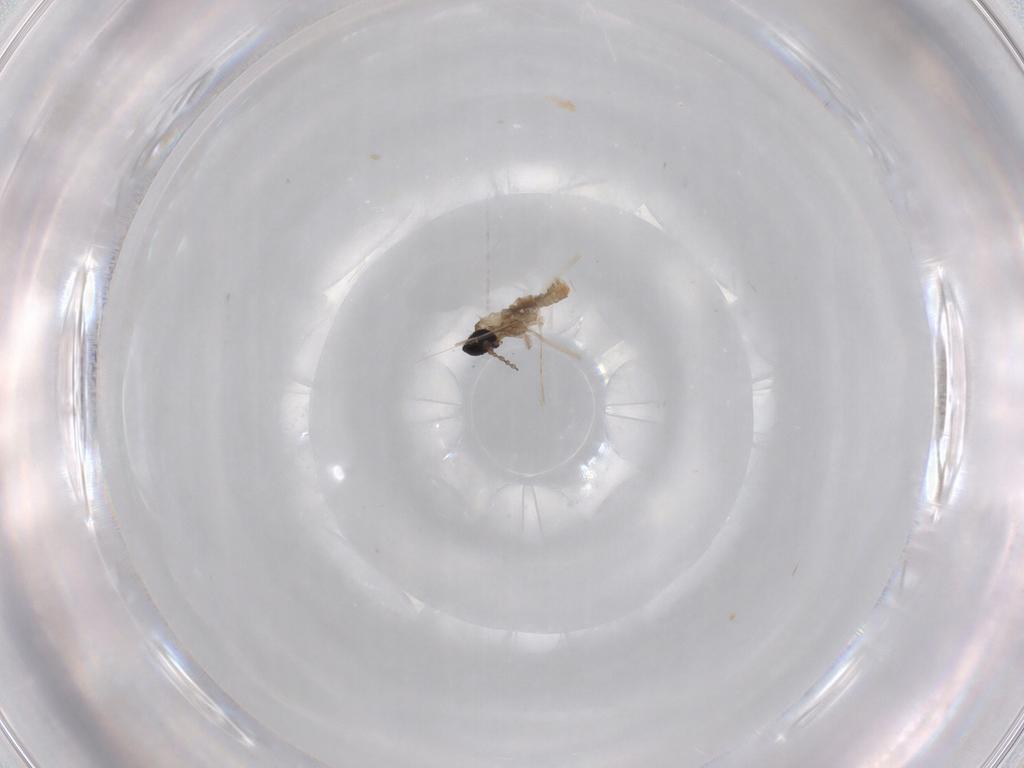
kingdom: Animalia
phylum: Arthropoda
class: Insecta
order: Diptera
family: Cecidomyiidae
